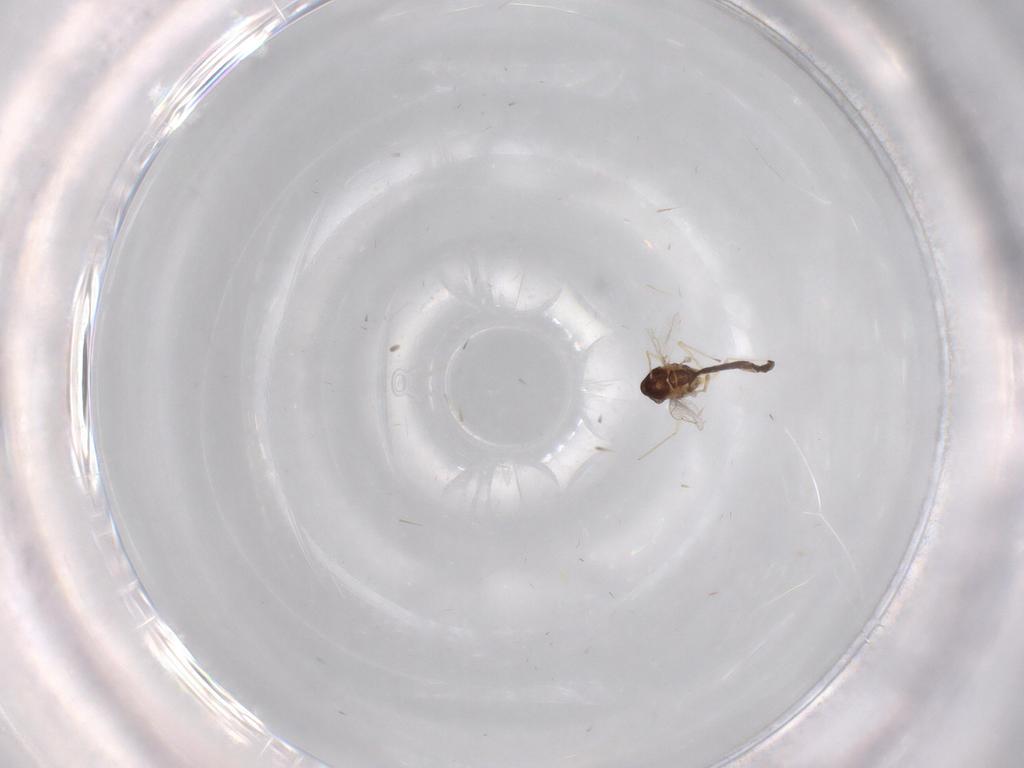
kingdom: Animalia
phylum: Arthropoda
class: Insecta
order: Diptera
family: Chironomidae
